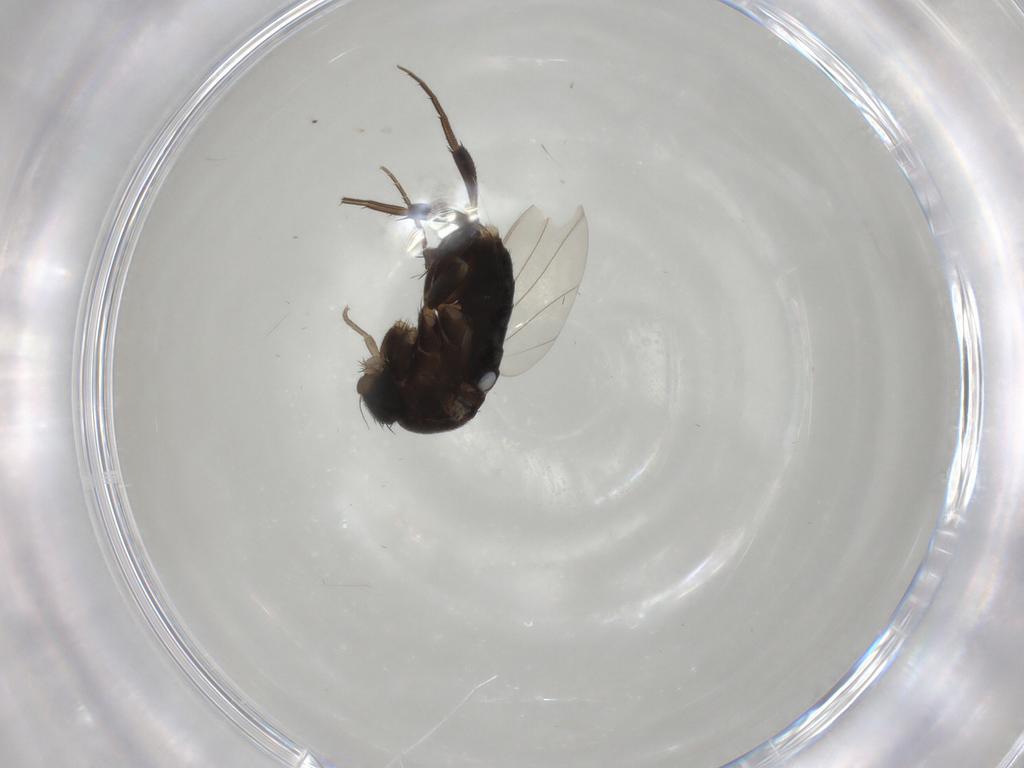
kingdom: Animalia
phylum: Arthropoda
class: Insecta
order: Diptera
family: Phoridae
